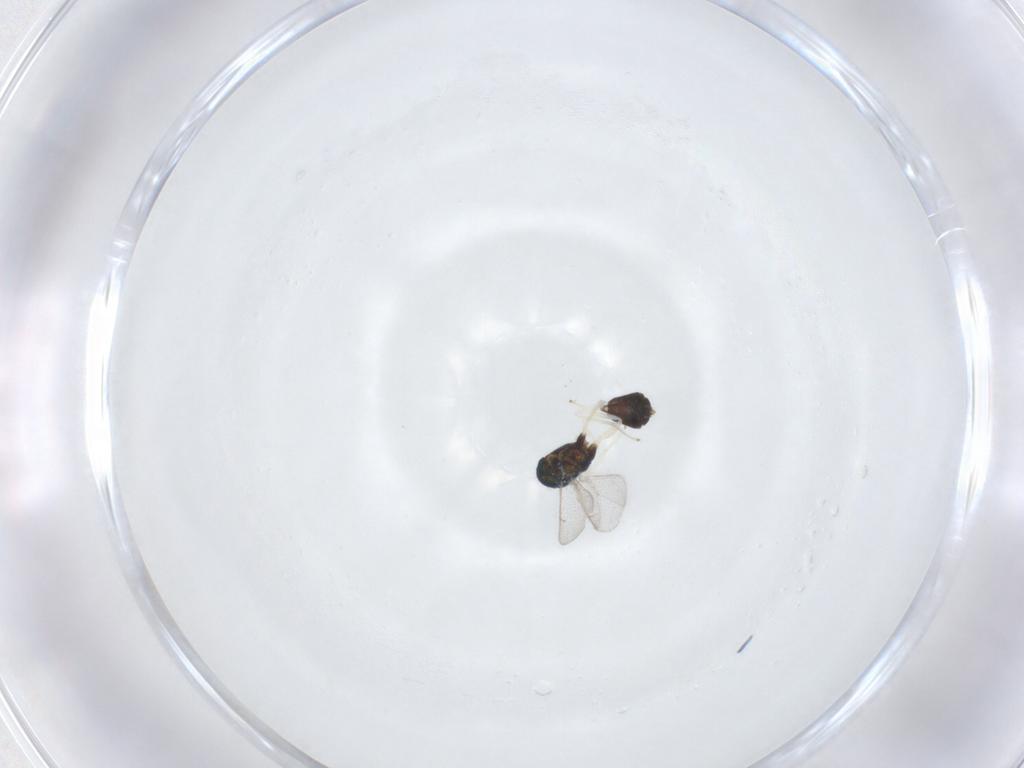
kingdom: Animalia
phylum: Arthropoda
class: Insecta
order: Hymenoptera
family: Eulophidae
